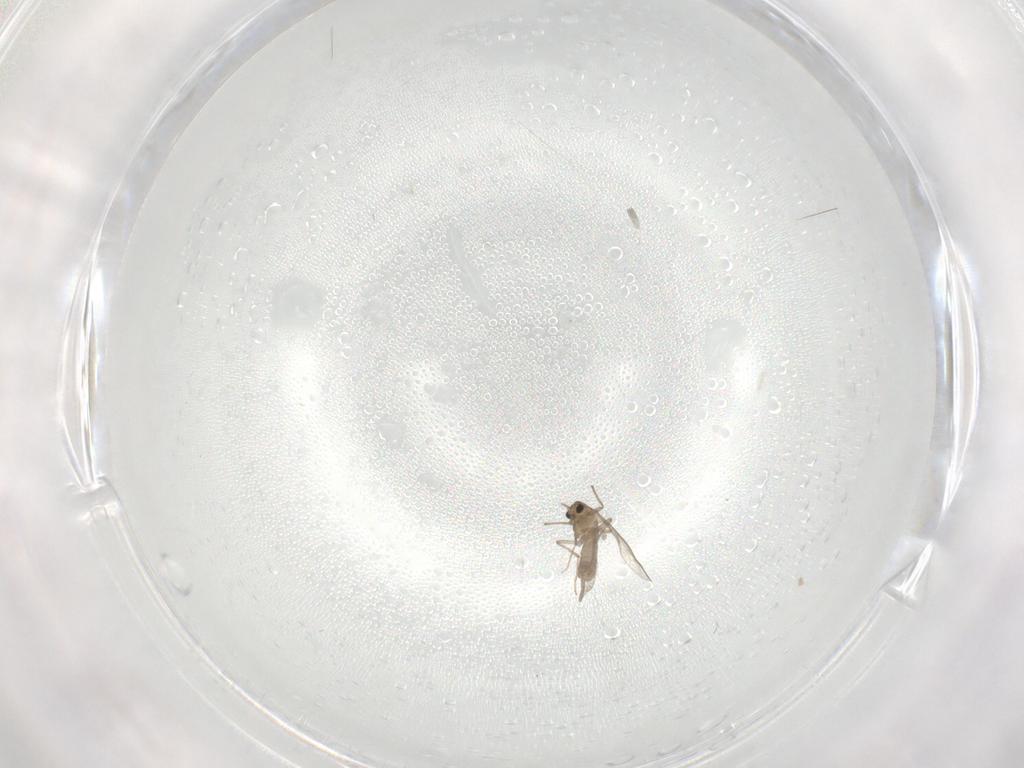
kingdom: Animalia
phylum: Arthropoda
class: Insecta
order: Diptera
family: Chironomidae
